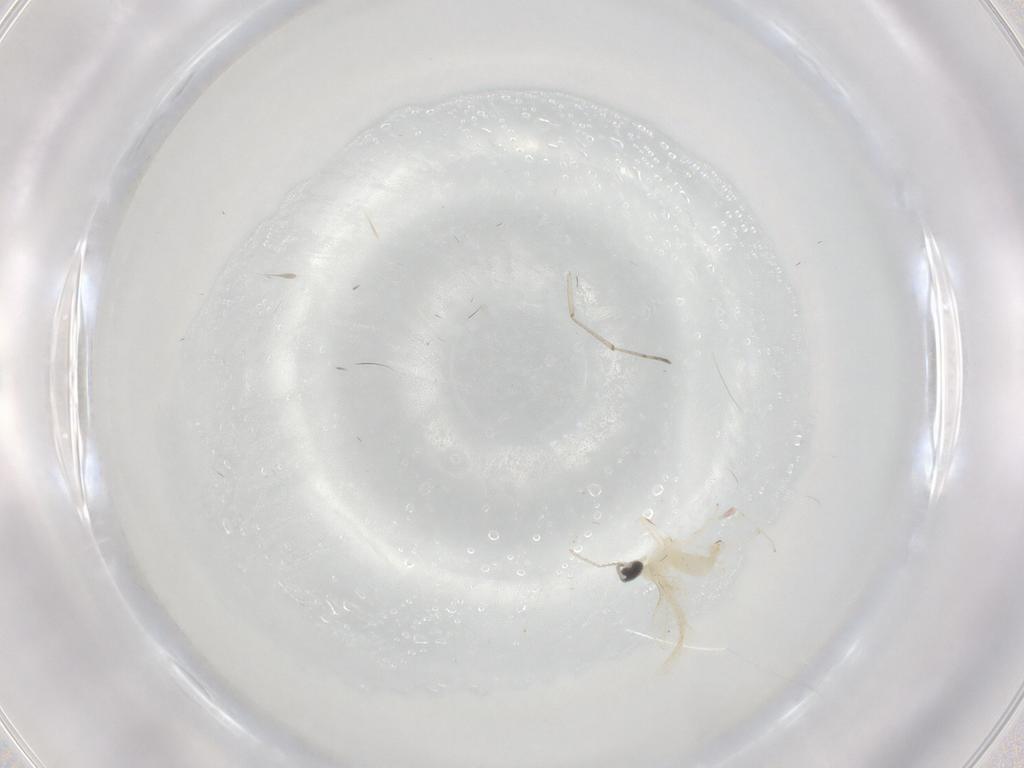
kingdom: Animalia
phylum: Arthropoda
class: Insecta
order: Diptera
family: Cecidomyiidae
